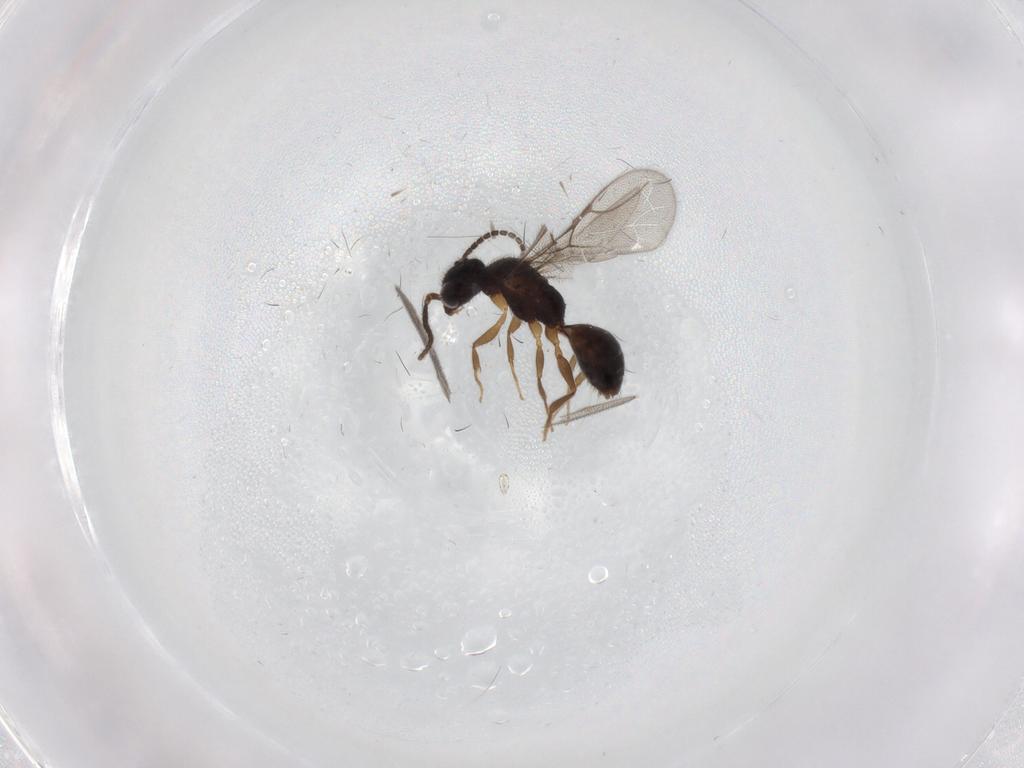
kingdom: Animalia
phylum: Arthropoda
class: Insecta
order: Hymenoptera
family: Bethylidae
